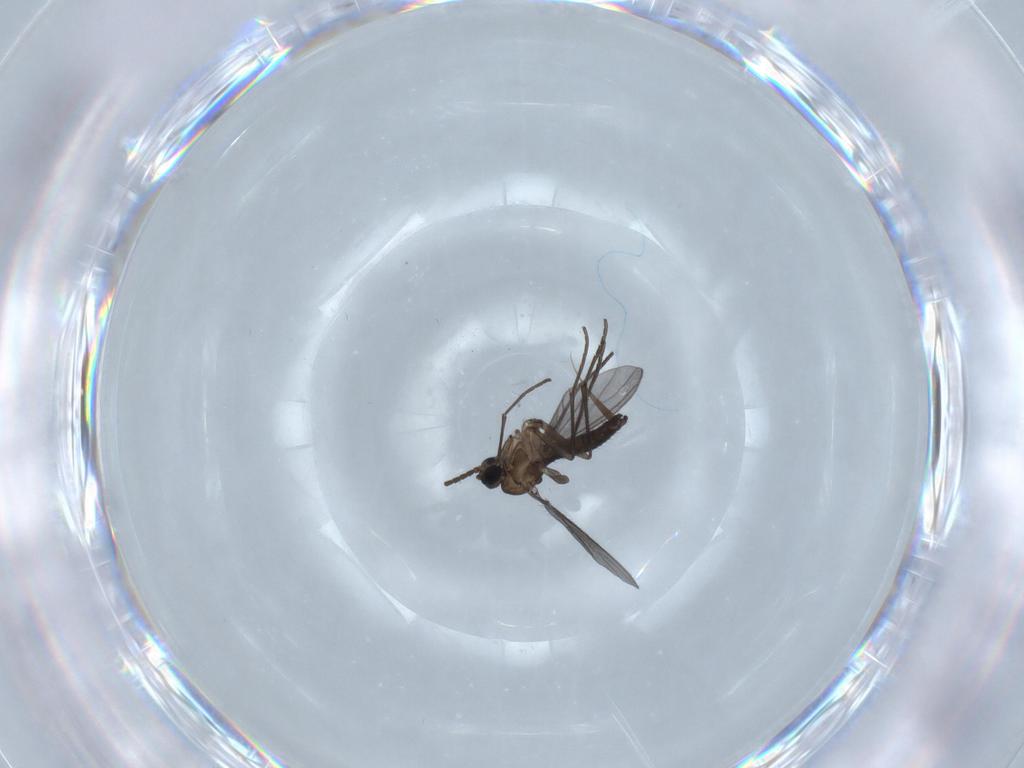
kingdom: Animalia
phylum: Arthropoda
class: Insecta
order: Diptera
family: Sciaridae
